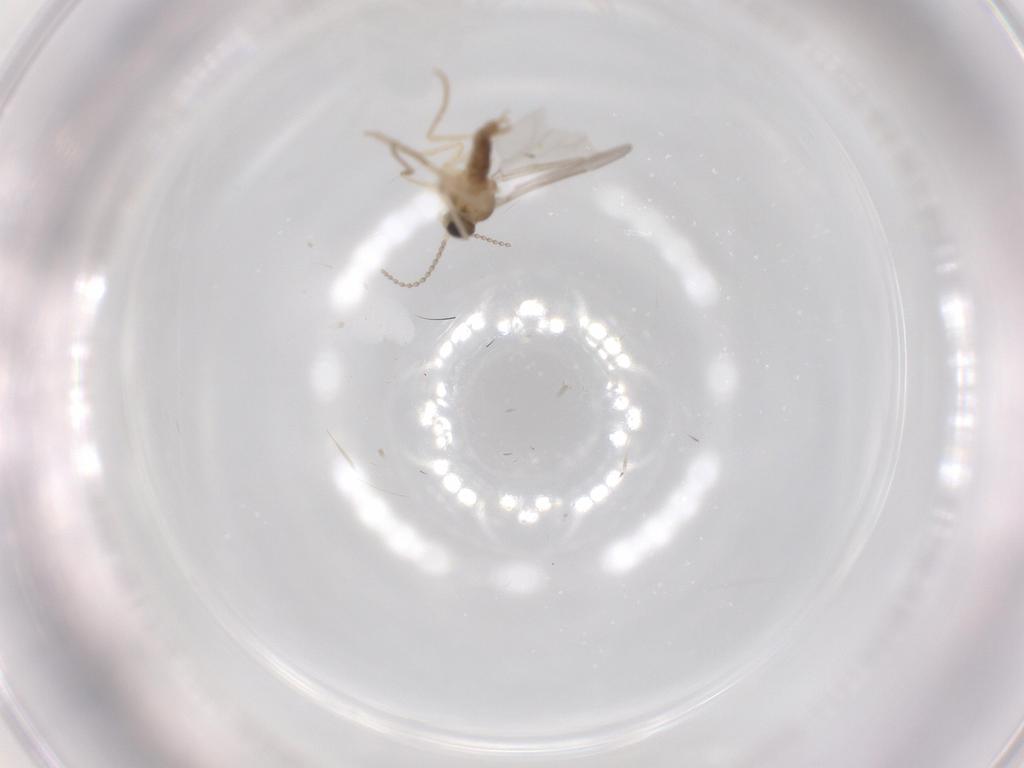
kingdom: Animalia
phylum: Arthropoda
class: Insecta
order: Diptera
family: Cecidomyiidae
